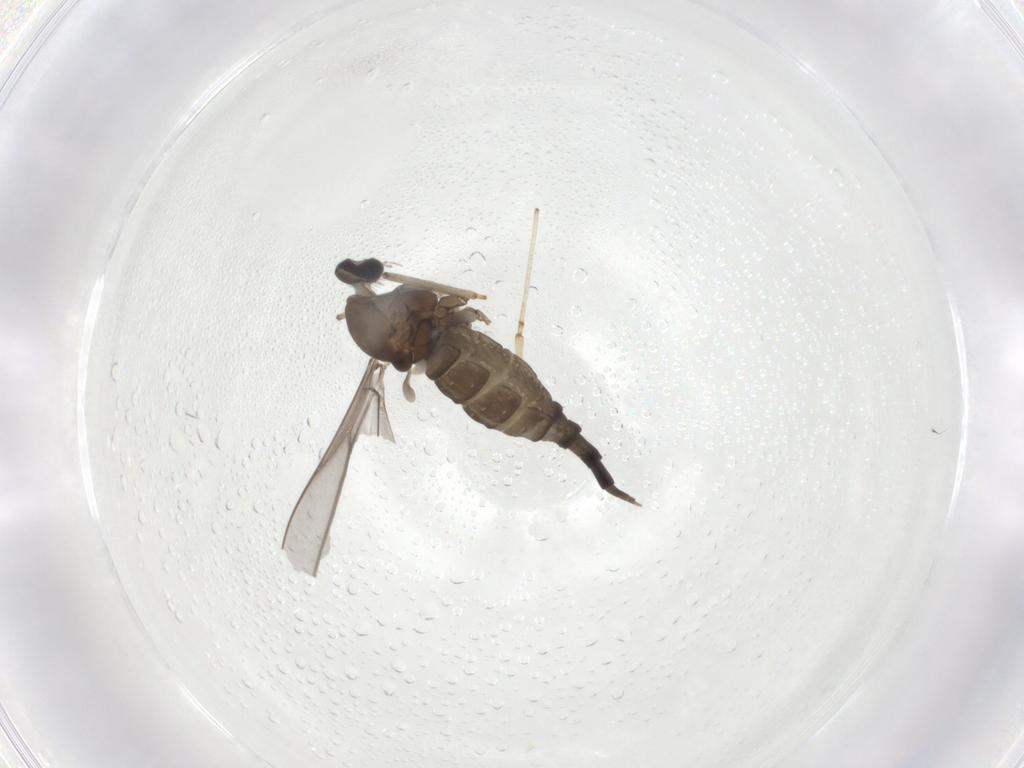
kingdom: Animalia
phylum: Arthropoda
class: Insecta
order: Diptera
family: Cecidomyiidae
